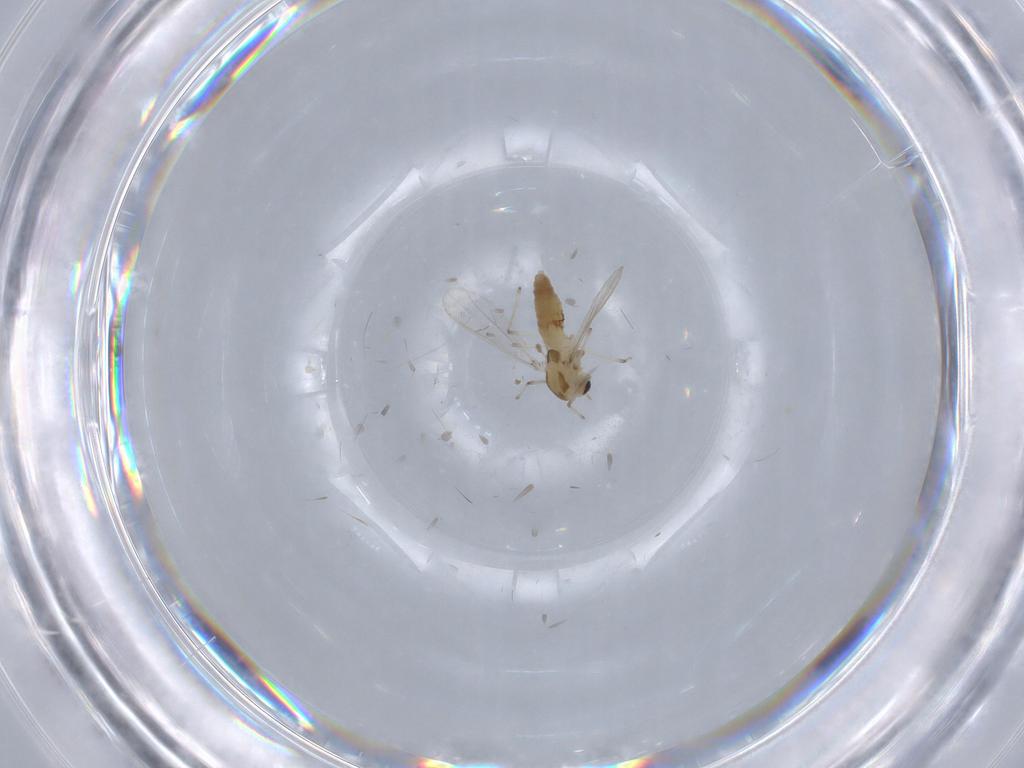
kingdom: Animalia
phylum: Arthropoda
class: Insecta
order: Diptera
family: Chironomidae
